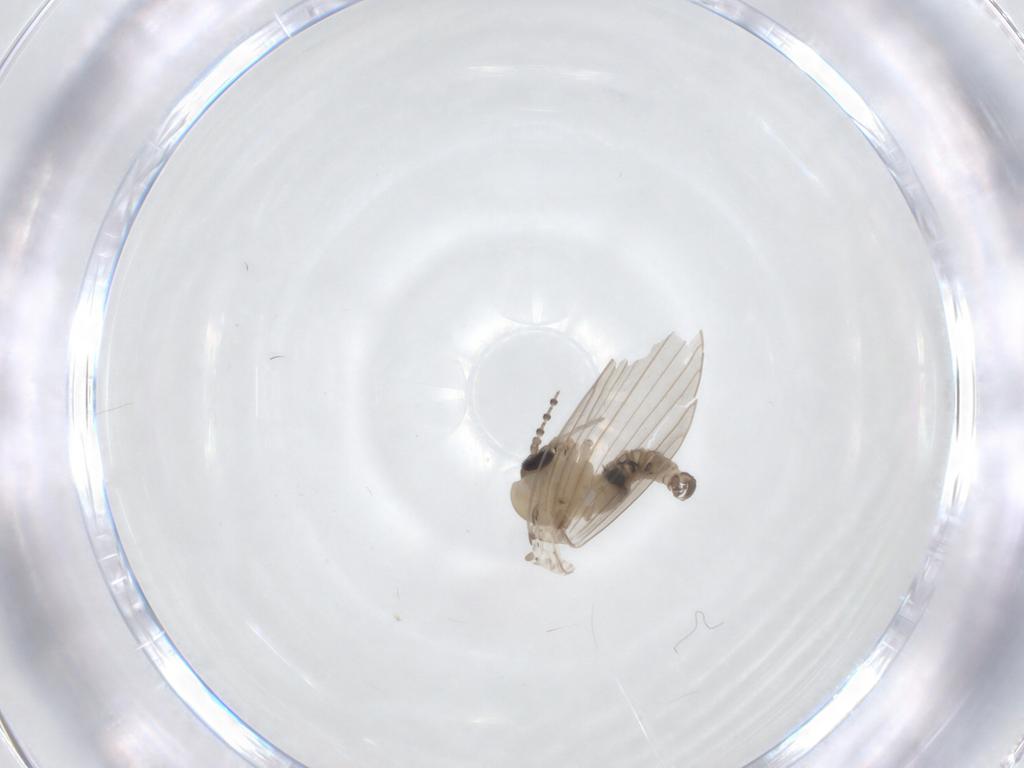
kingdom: Animalia
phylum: Arthropoda
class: Insecta
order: Diptera
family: Psychodidae
